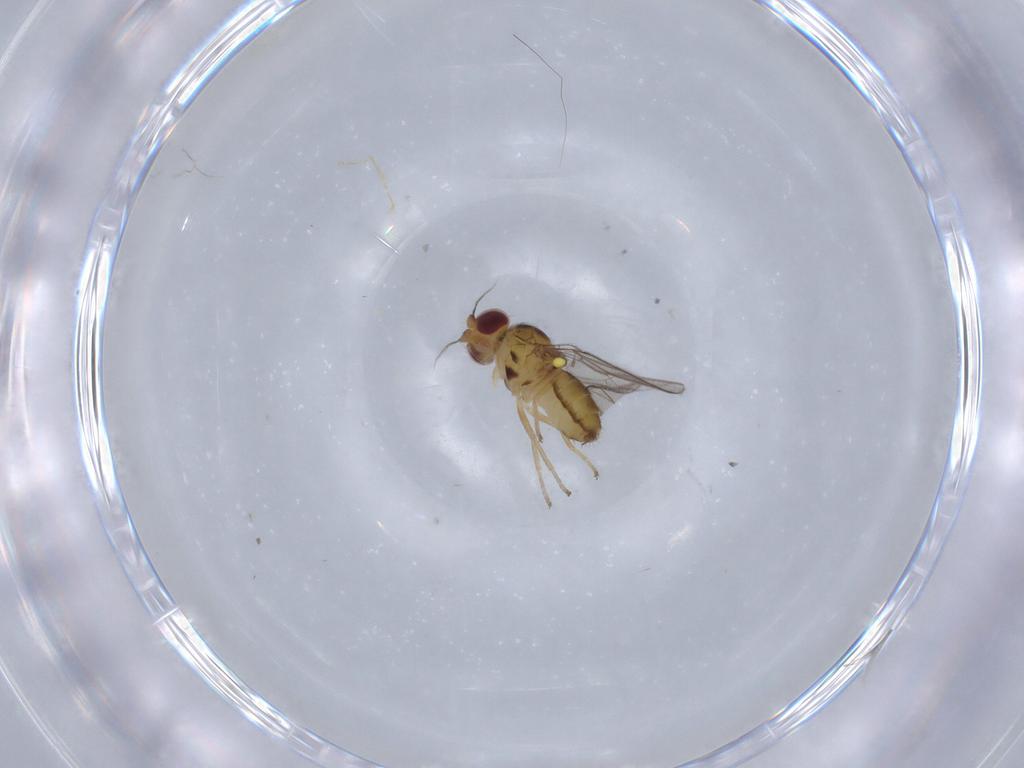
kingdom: Animalia
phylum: Arthropoda
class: Insecta
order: Diptera
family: Chloropidae
